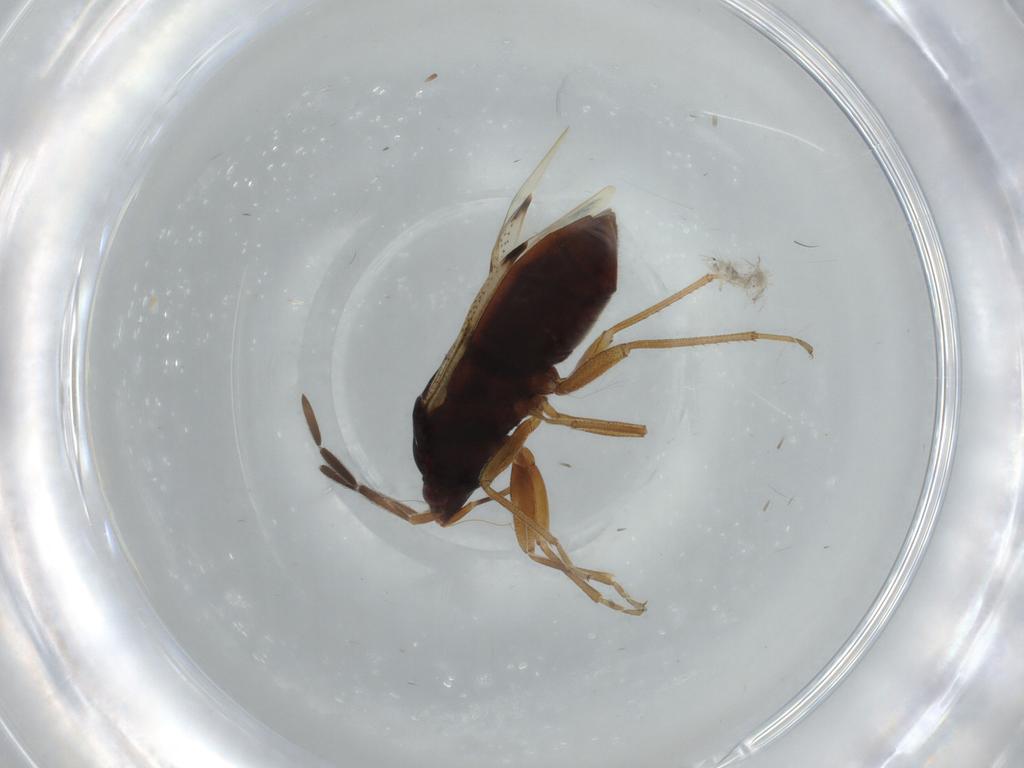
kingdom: Animalia
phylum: Arthropoda
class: Insecta
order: Hemiptera
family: Rhyparochromidae
